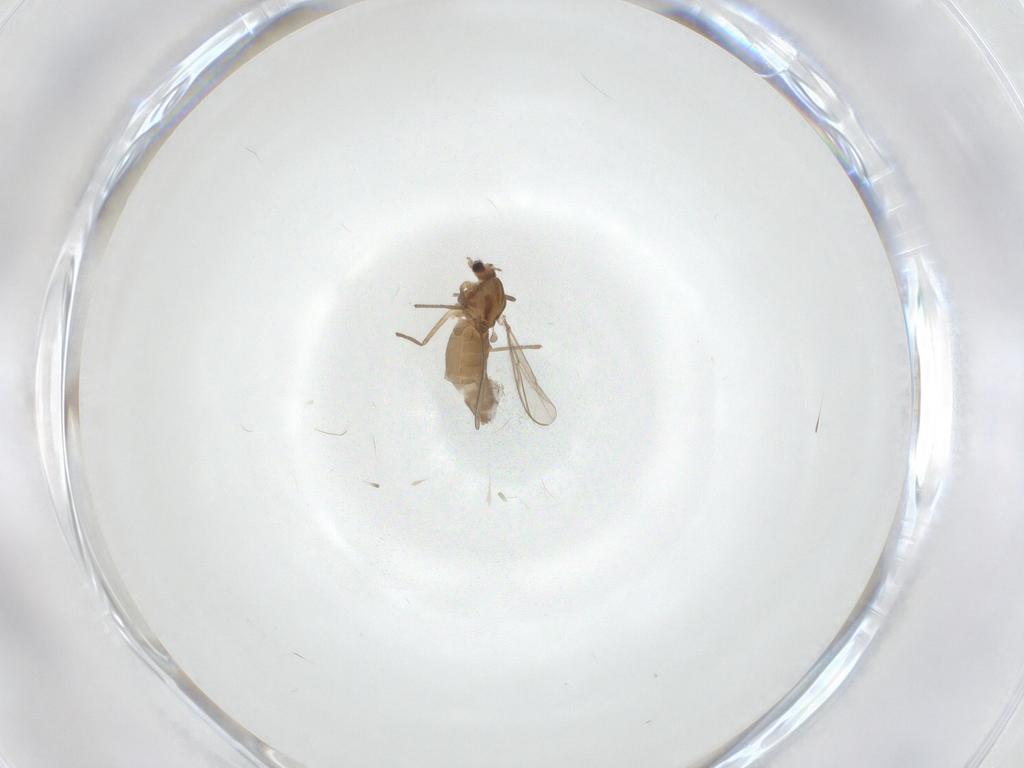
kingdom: Animalia
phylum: Arthropoda
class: Insecta
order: Diptera
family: Chironomidae
